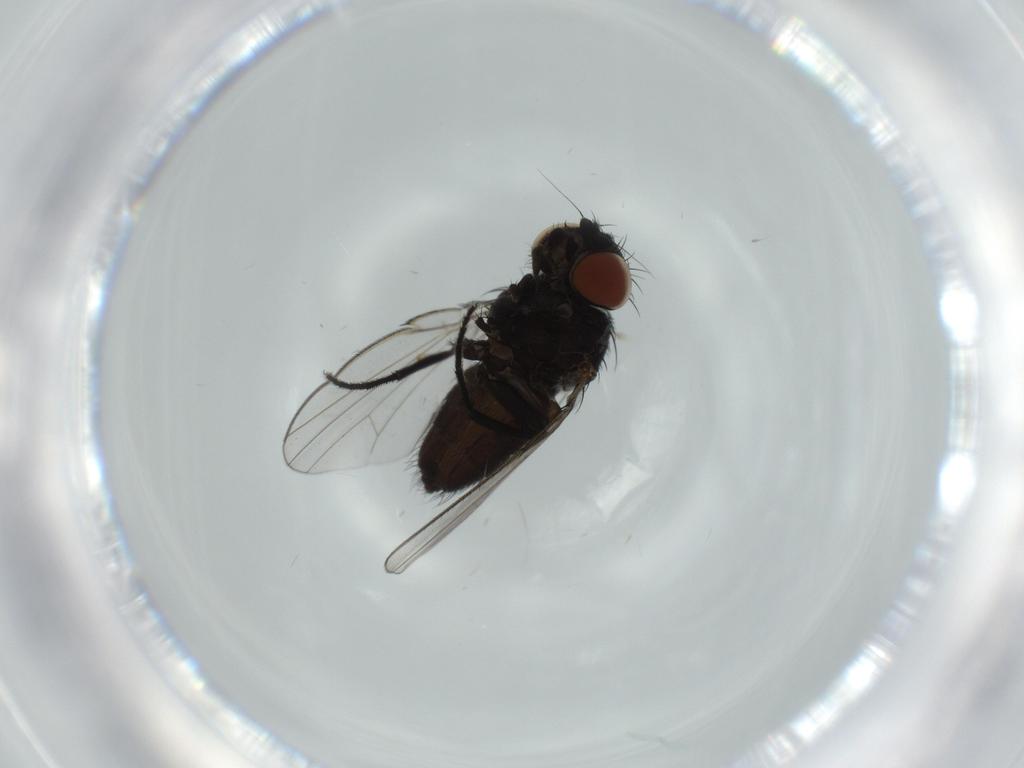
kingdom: Animalia
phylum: Arthropoda
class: Insecta
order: Diptera
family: Milichiidae
